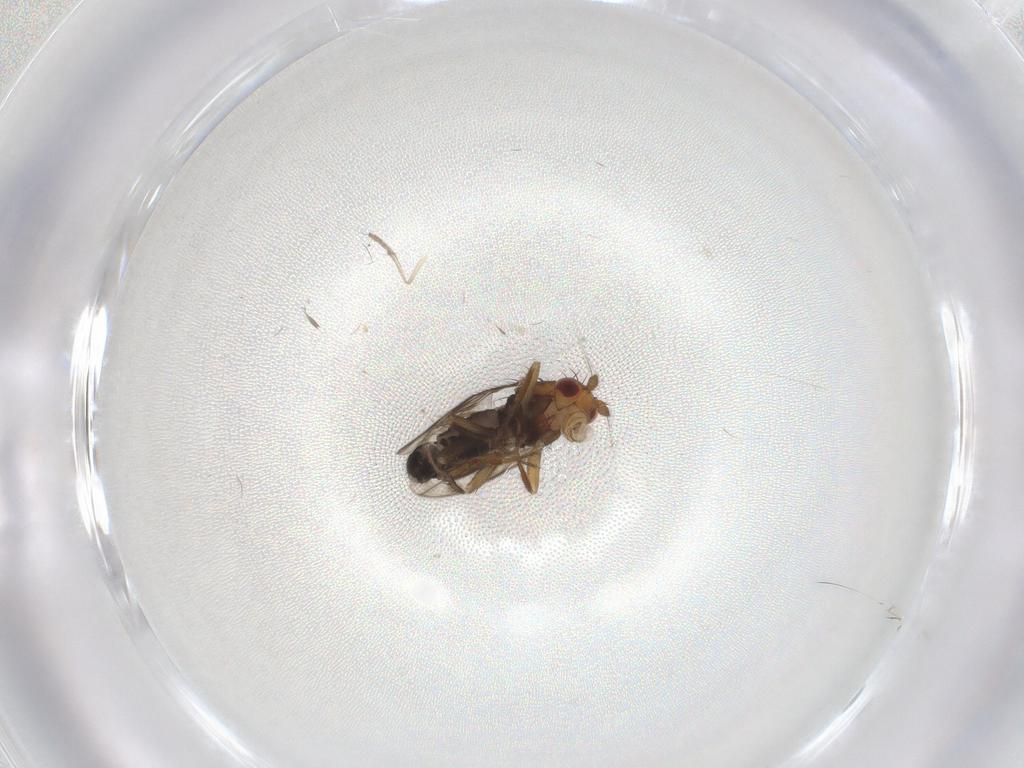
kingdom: Animalia
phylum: Arthropoda
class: Insecta
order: Diptera
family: Sphaeroceridae
